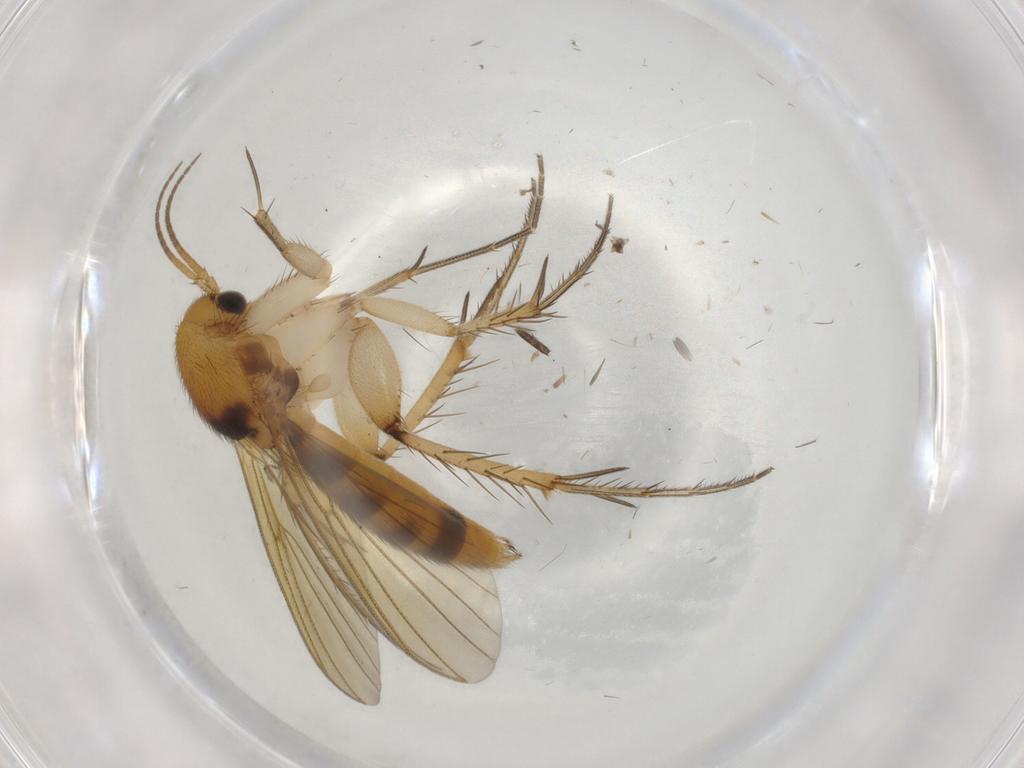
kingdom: Animalia
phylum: Arthropoda
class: Insecta
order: Diptera
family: Mycetophilidae
